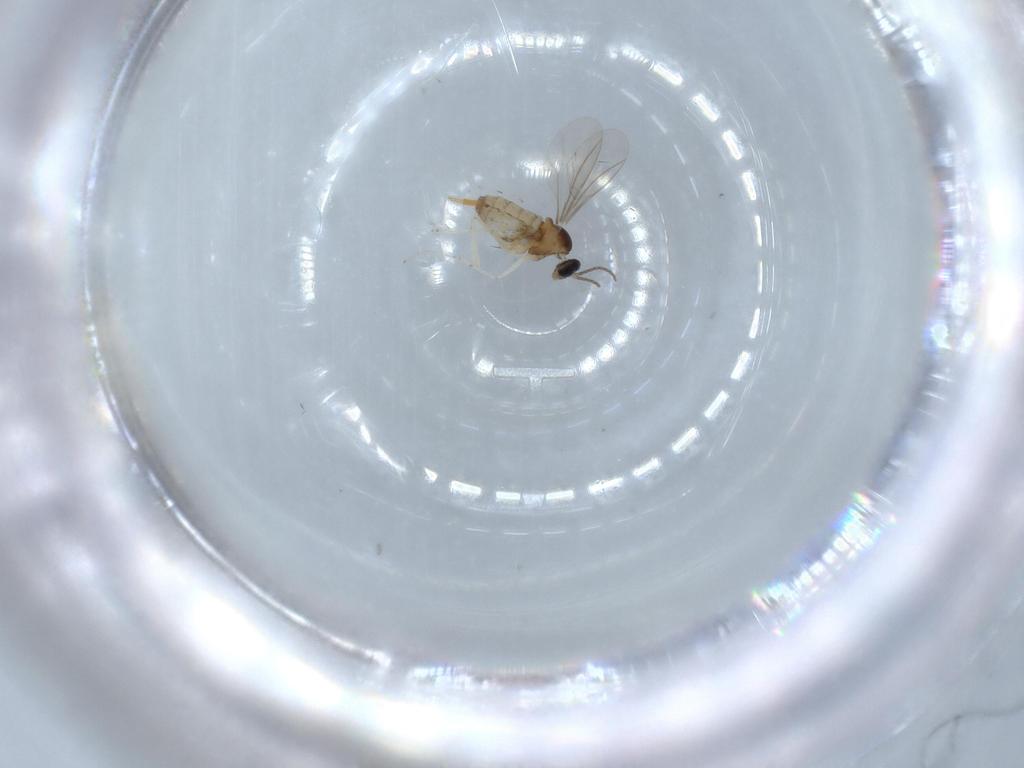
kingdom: Animalia
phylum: Arthropoda
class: Insecta
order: Diptera
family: Cecidomyiidae
